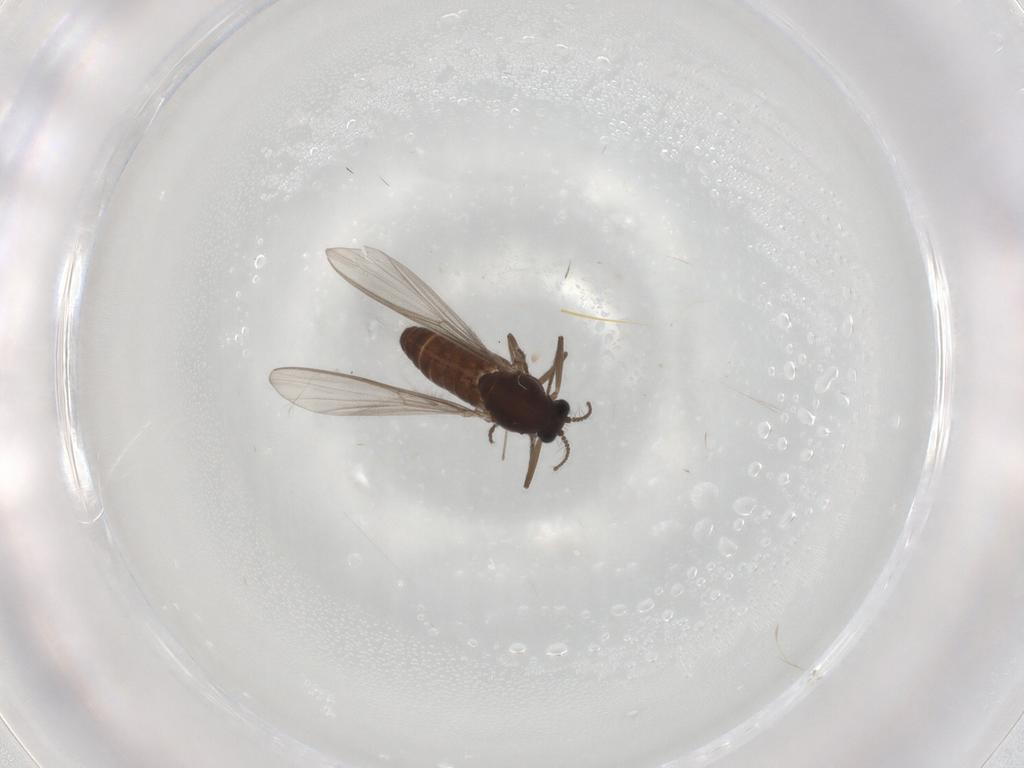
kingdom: Animalia
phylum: Arthropoda
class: Insecta
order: Diptera
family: Chironomidae
